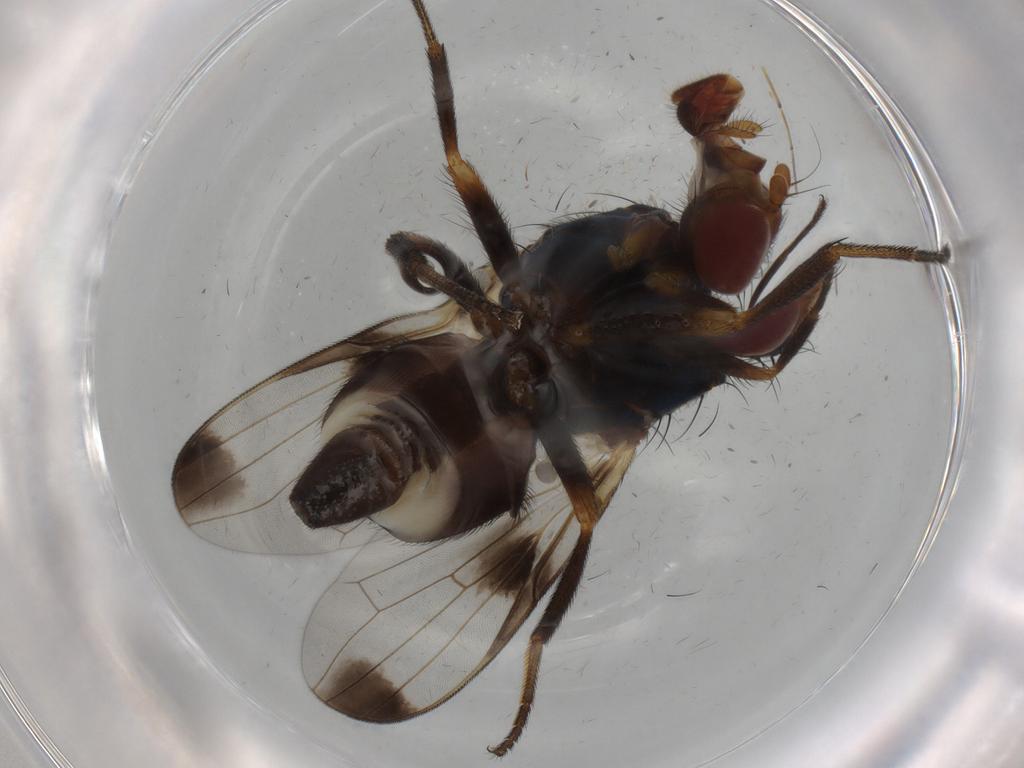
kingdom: Animalia
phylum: Arthropoda
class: Insecta
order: Diptera
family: Ulidiidae
